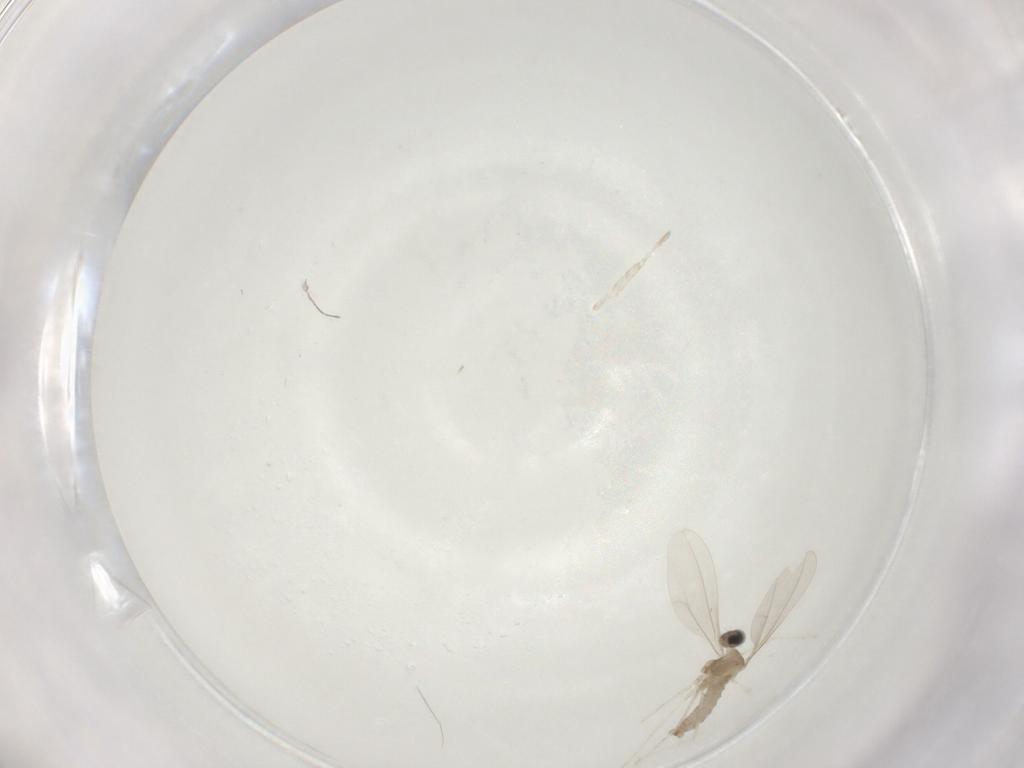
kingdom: Animalia
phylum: Arthropoda
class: Insecta
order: Diptera
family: Cecidomyiidae
